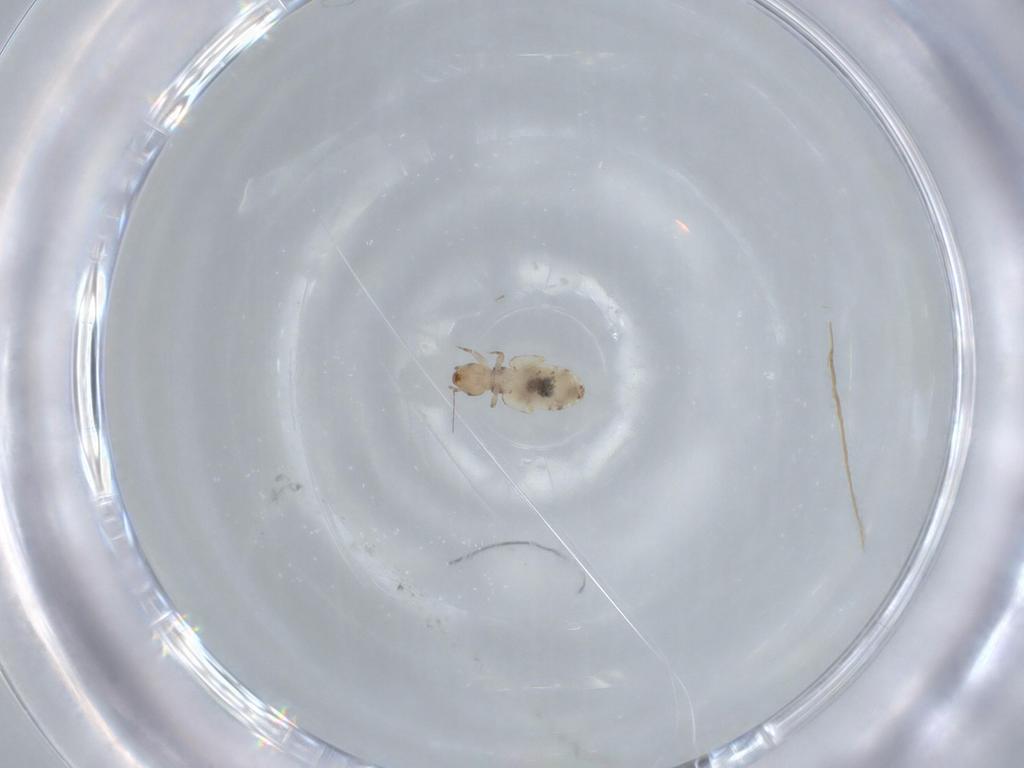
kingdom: Animalia
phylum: Arthropoda
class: Insecta
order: Psocodea
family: Liposcelididae
